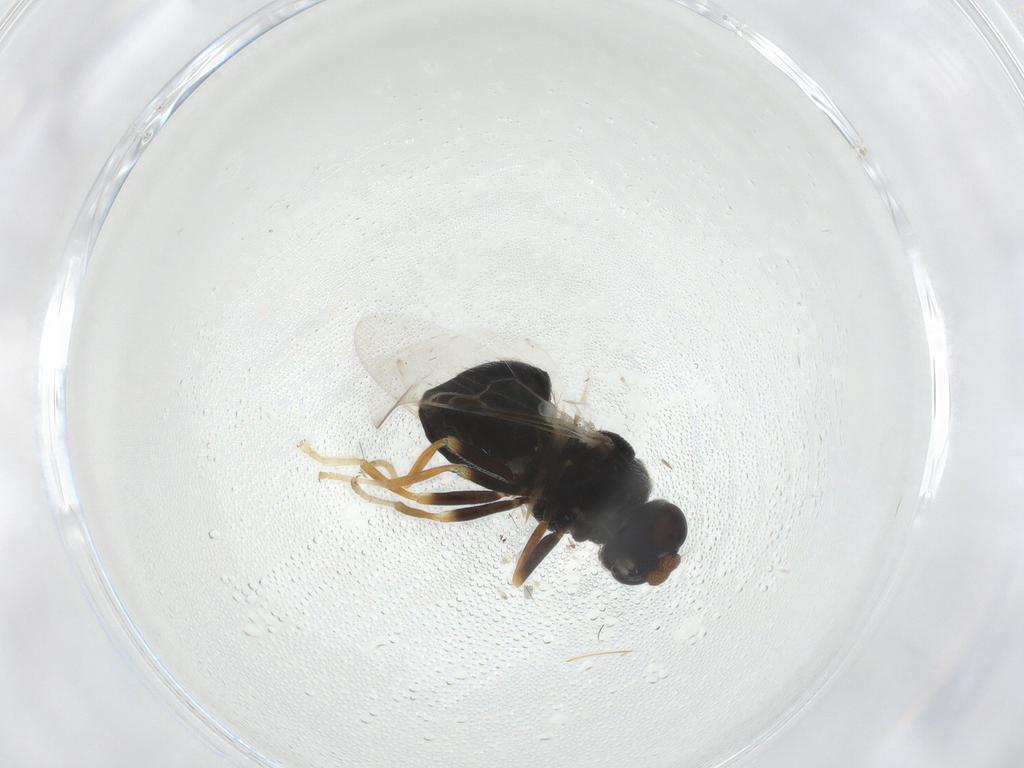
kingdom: Animalia
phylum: Arthropoda
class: Insecta
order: Diptera
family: Stratiomyidae
